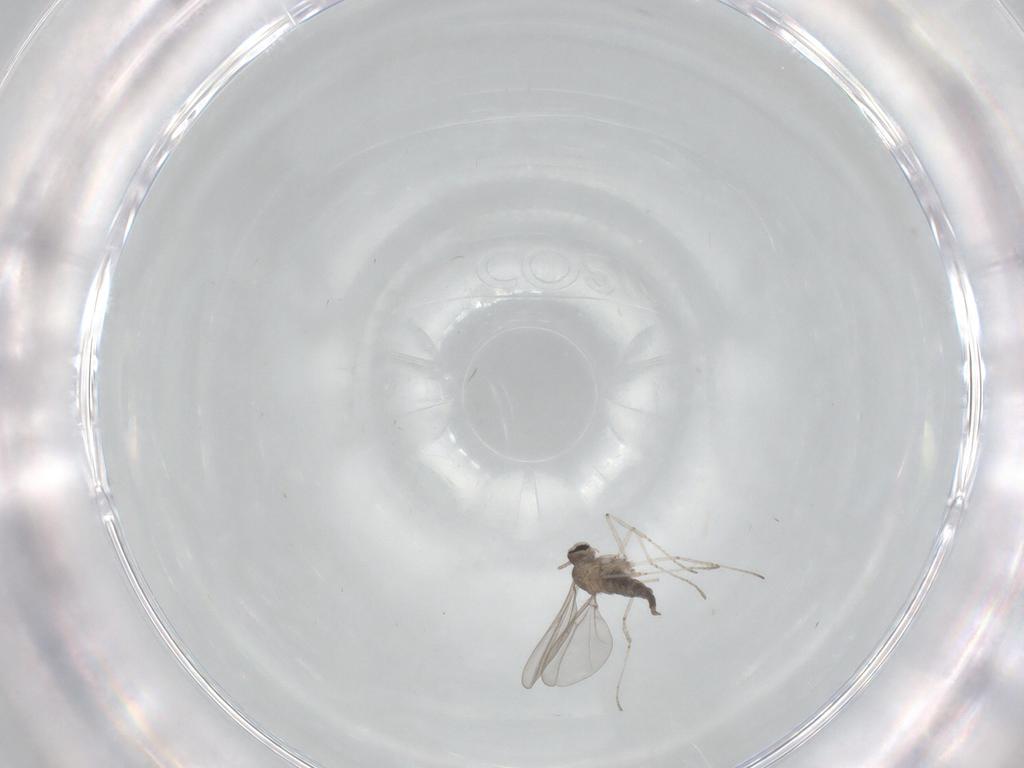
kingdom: Animalia
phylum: Arthropoda
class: Insecta
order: Diptera
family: Cecidomyiidae
